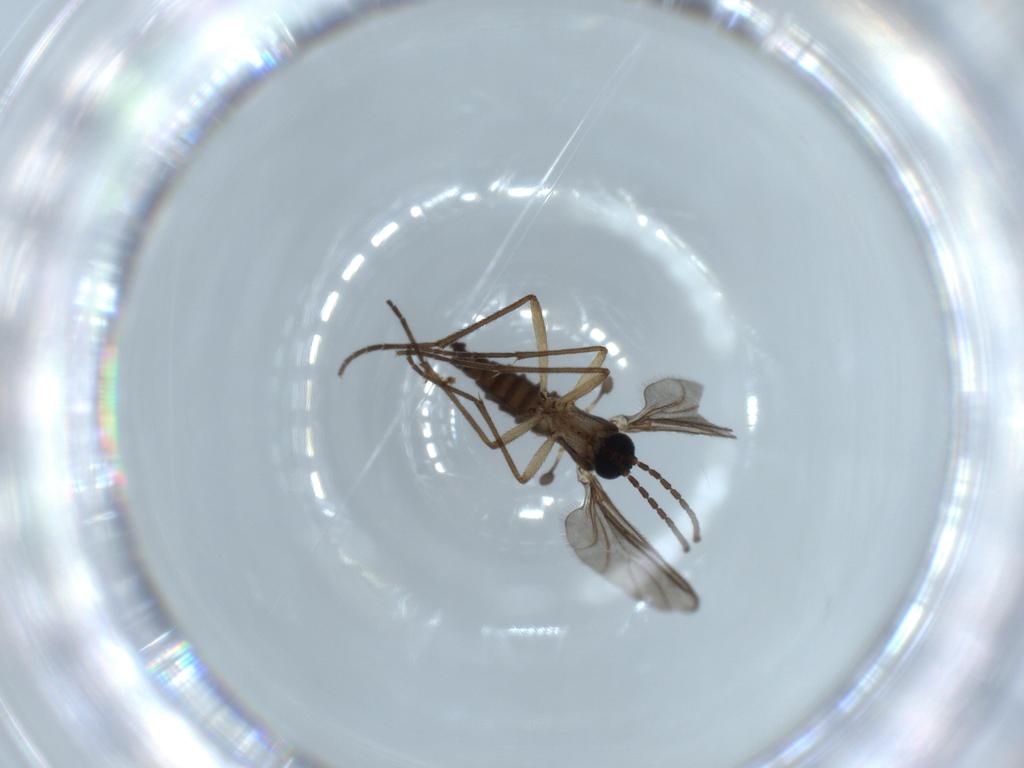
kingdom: Animalia
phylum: Arthropoda
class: Insecta
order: Diptera
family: Sciaridae
